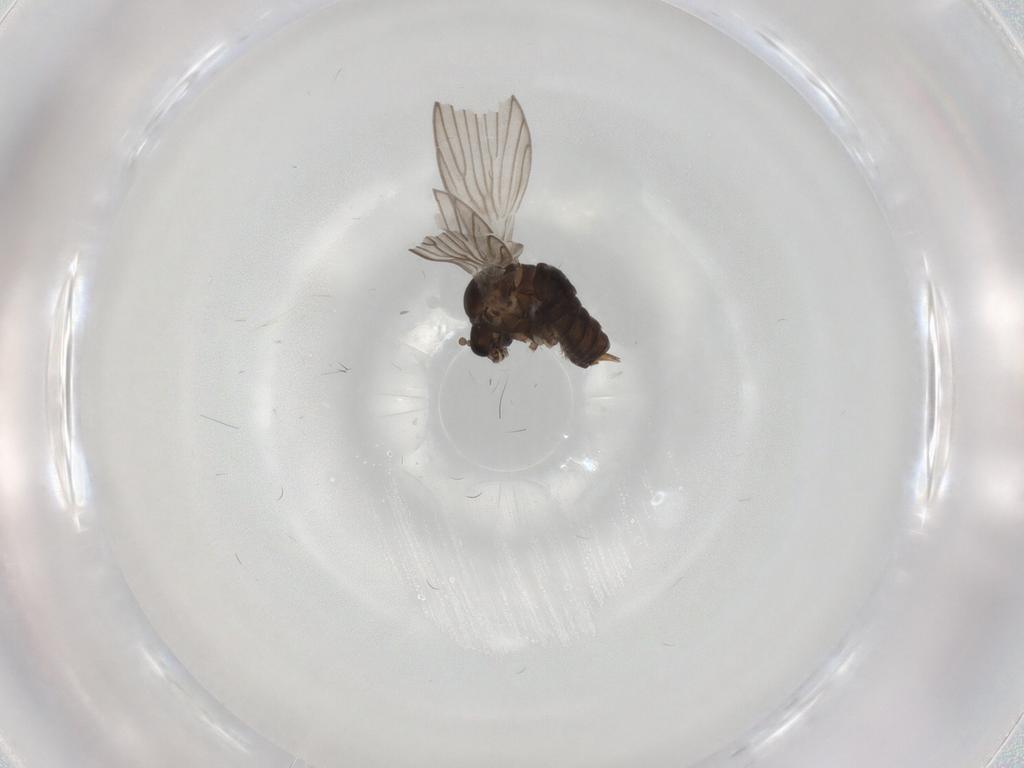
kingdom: Animalia
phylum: Arthropoda
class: Insecta
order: Diptera
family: Psychodidae
